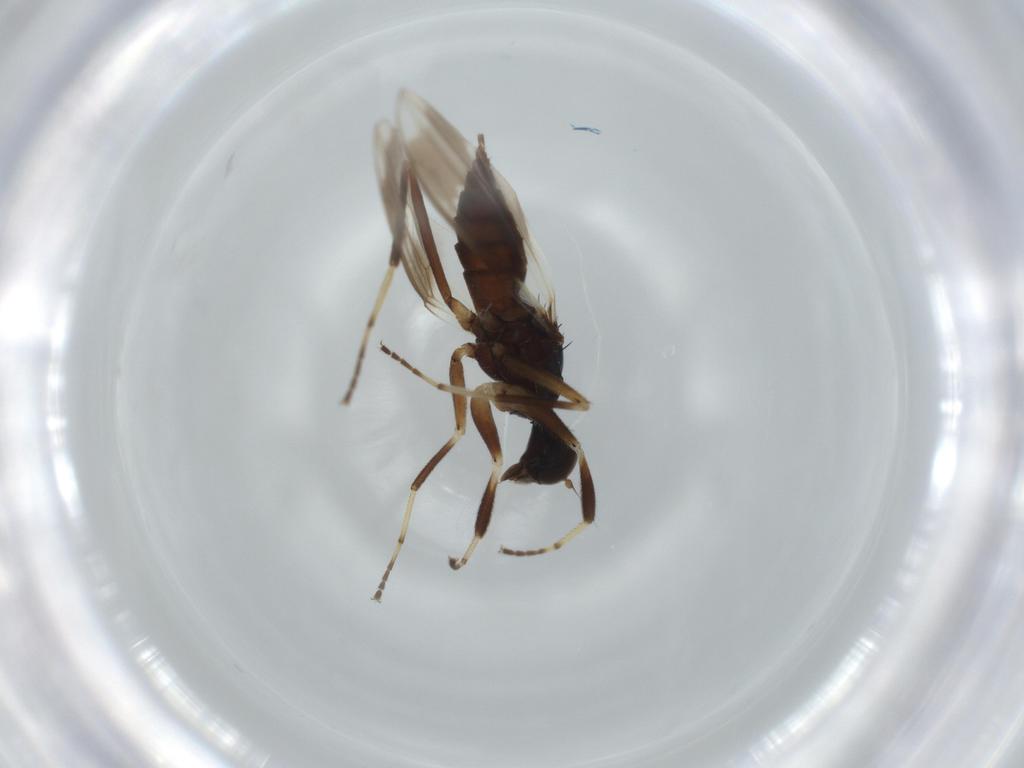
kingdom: Animalia
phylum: Arthropoda
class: Insecta
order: Diptera
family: Hybotidae
